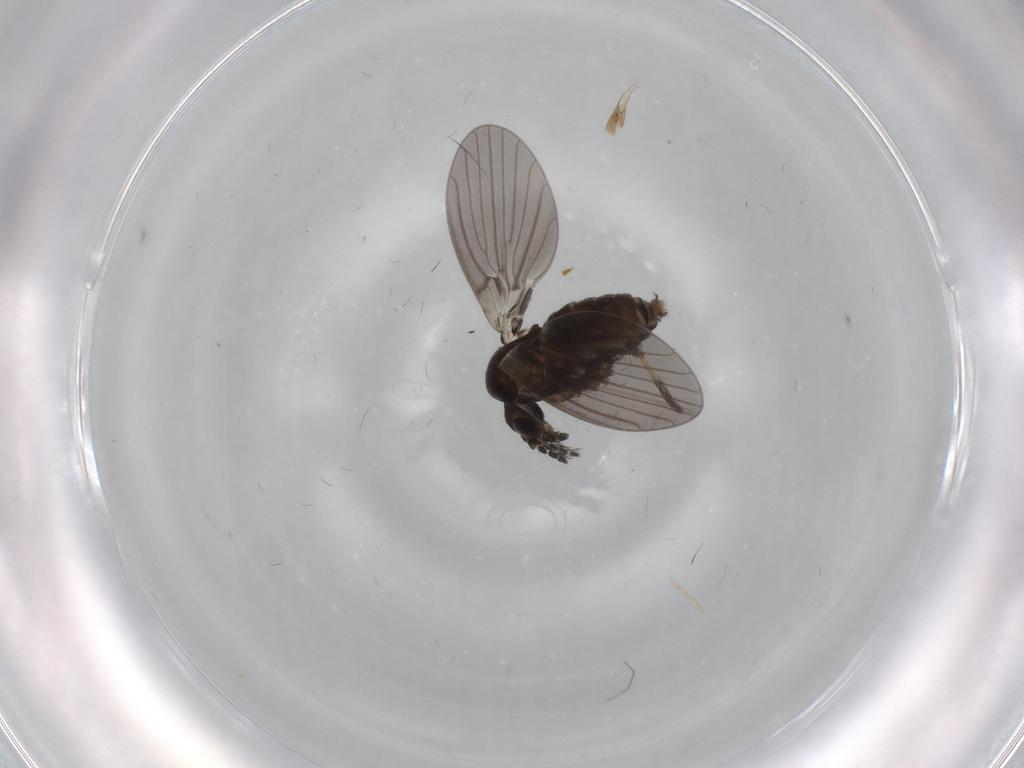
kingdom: Animalia
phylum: Arthropoda
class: Insecta
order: Diptera
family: Psychodidae
